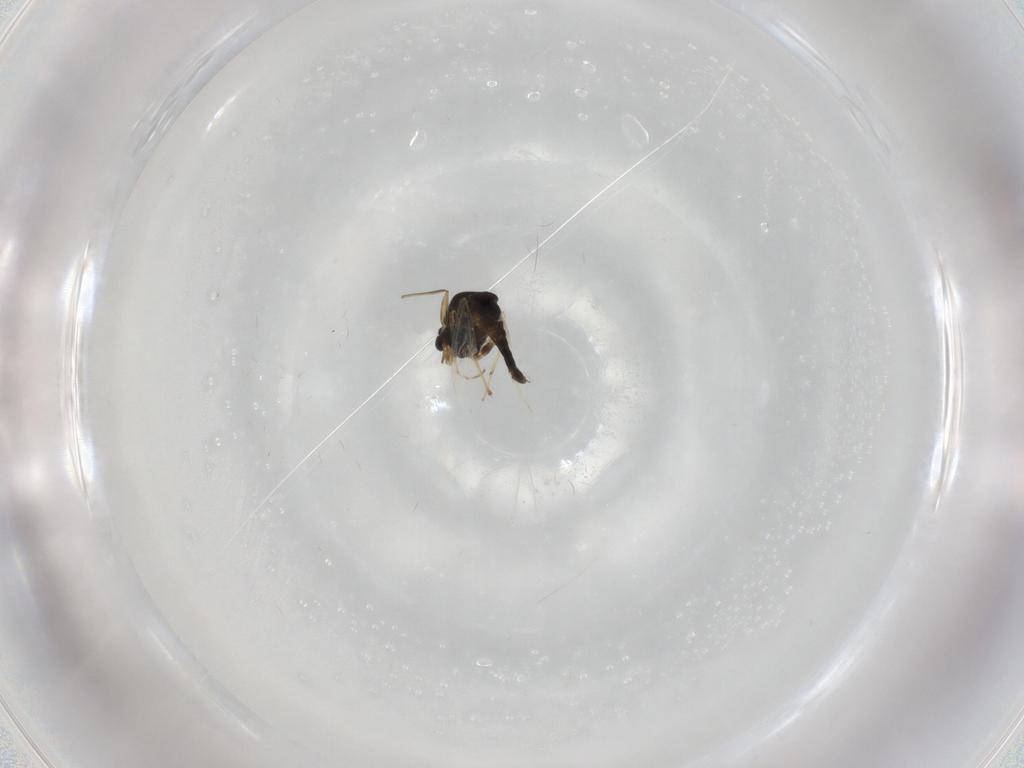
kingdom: Animalia
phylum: Arthropoda
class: Insecta
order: Diptera
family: Chironomidae
